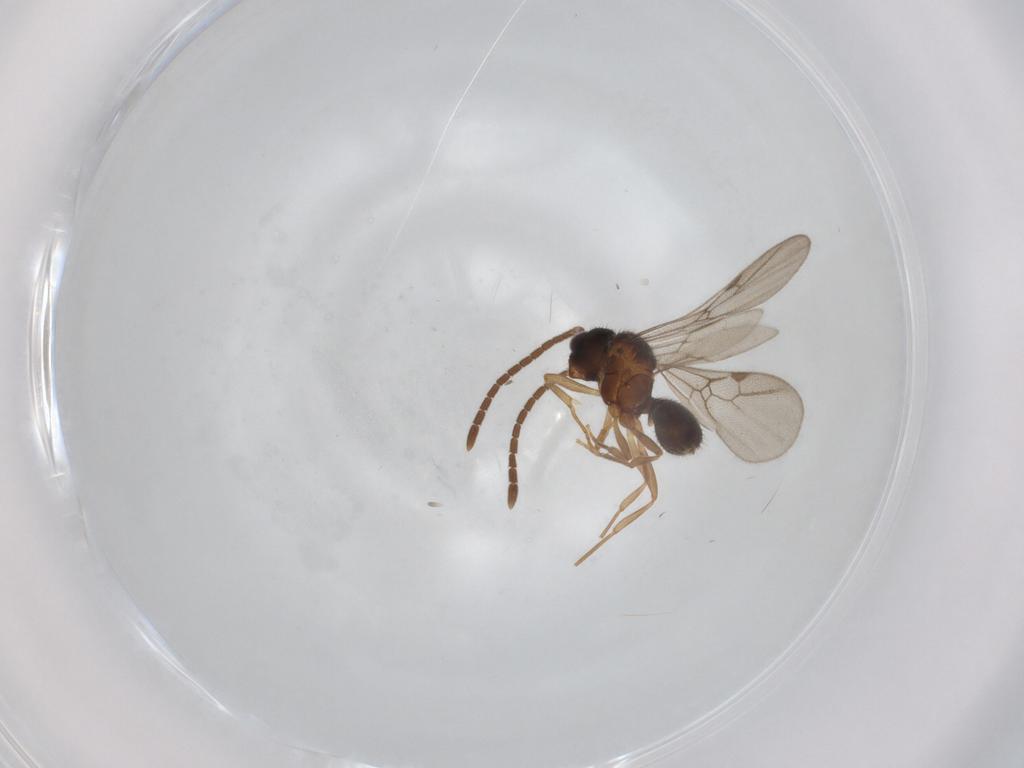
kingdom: Animalia
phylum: Arthropoda
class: Insecta
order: Hymenoptera
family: Formicidae
